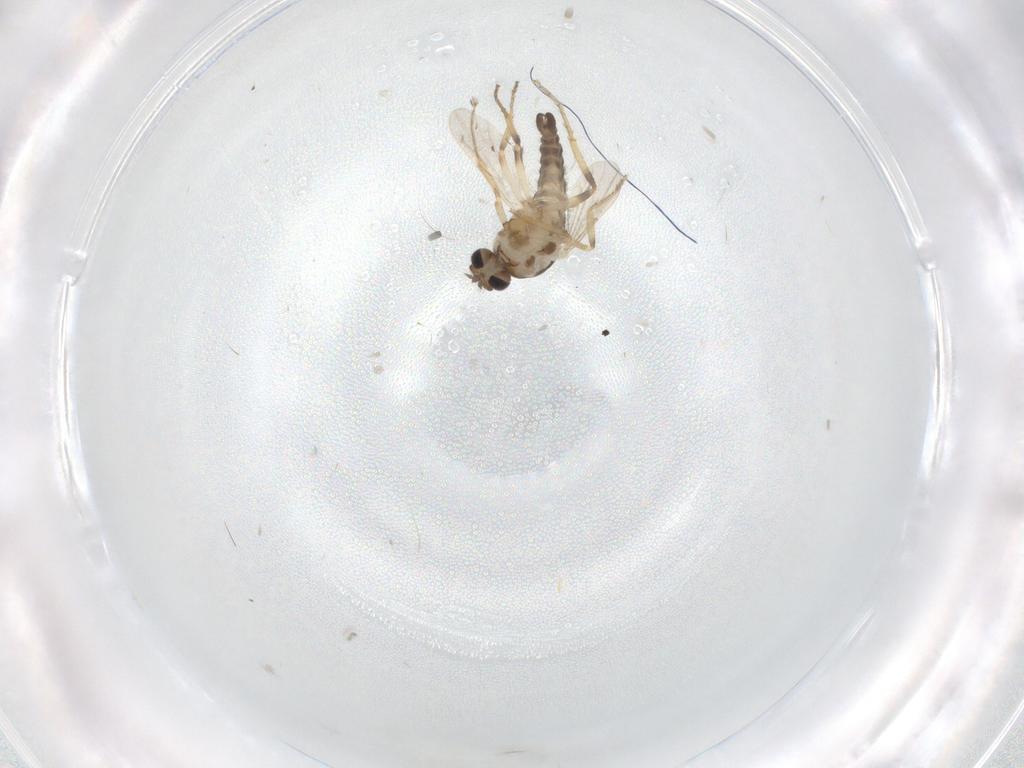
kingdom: Animalia
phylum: Arthropoda
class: Insecta
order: Diptera
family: Ceratopogonidae
